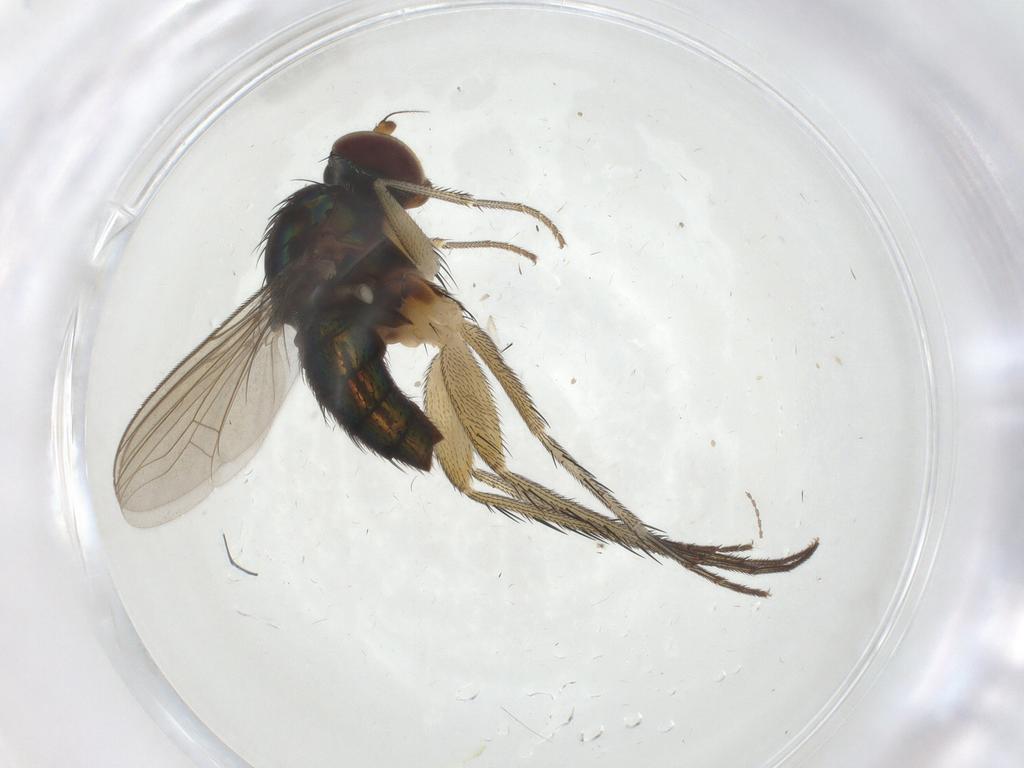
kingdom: Animalia
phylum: Arthropoda
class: Insecta
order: Diptera
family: Dolichopodidae
